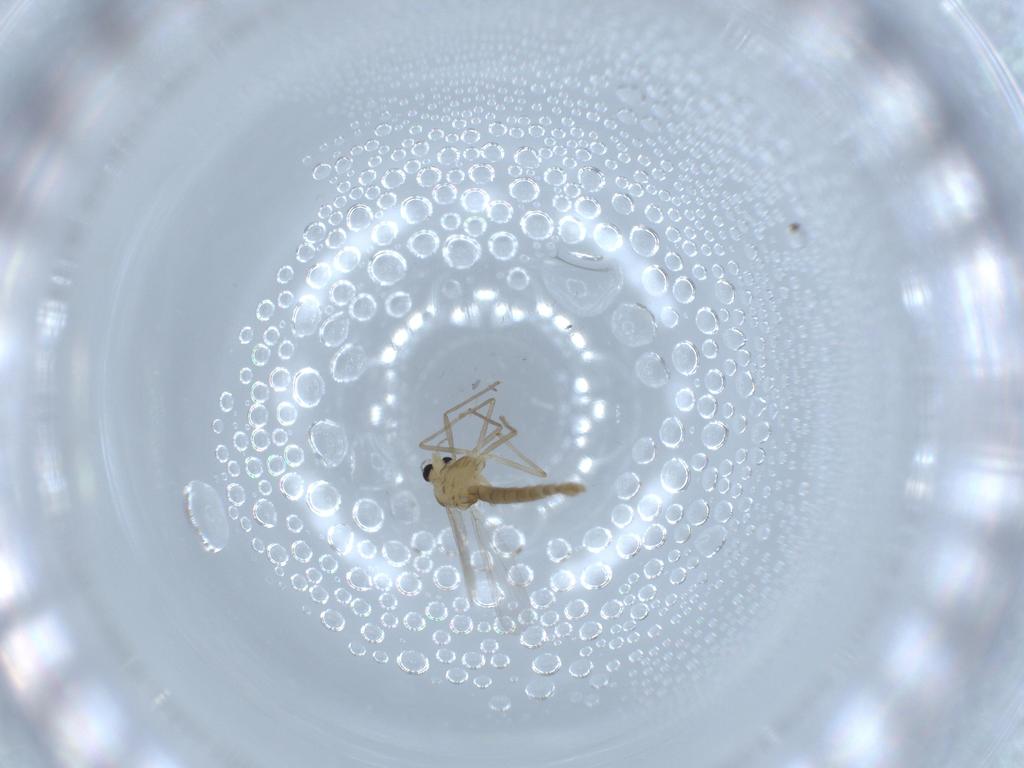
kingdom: Animalia
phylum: Arthropoda
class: Insecta
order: Diptera
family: Chironomidae
